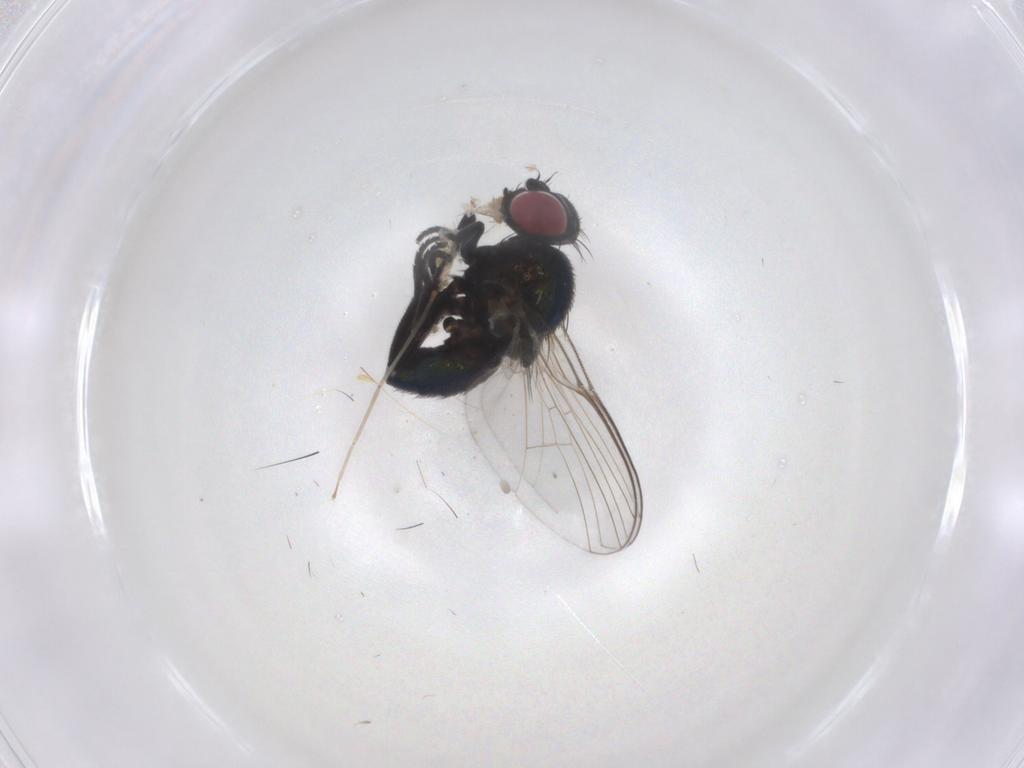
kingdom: Animalia
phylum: Arthropoda
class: Insecta
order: Diptera
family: Agromyzidae
